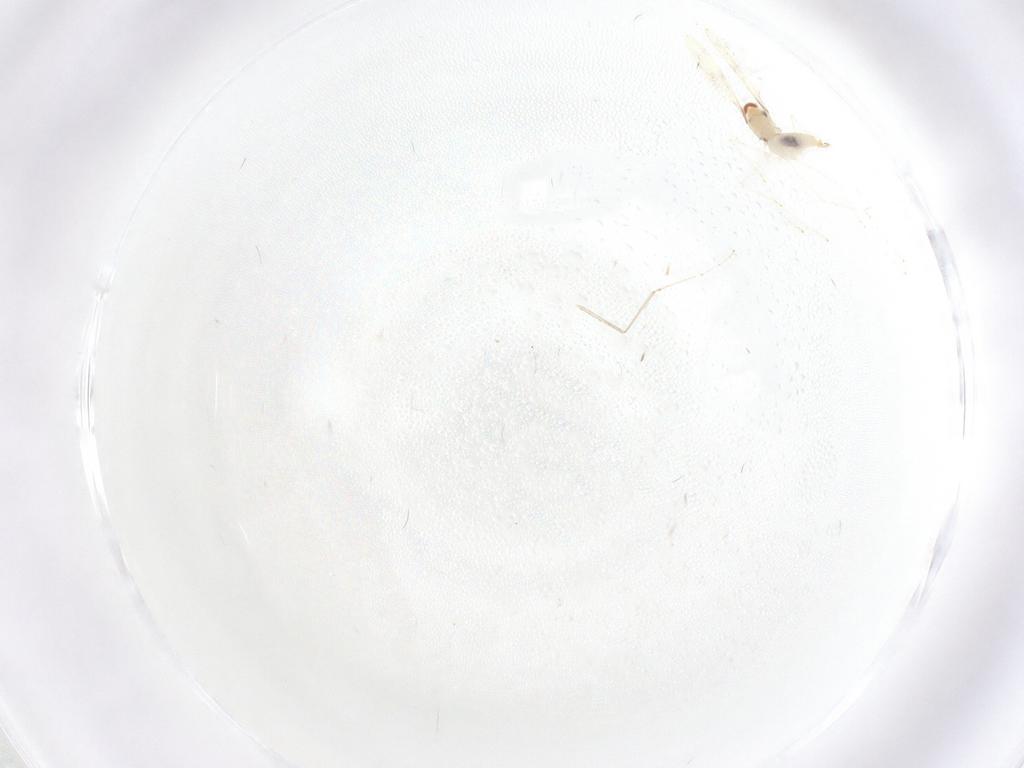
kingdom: Animalia
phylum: Arthropoda
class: Insecta
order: Diptera
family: Cecidomyiidae
